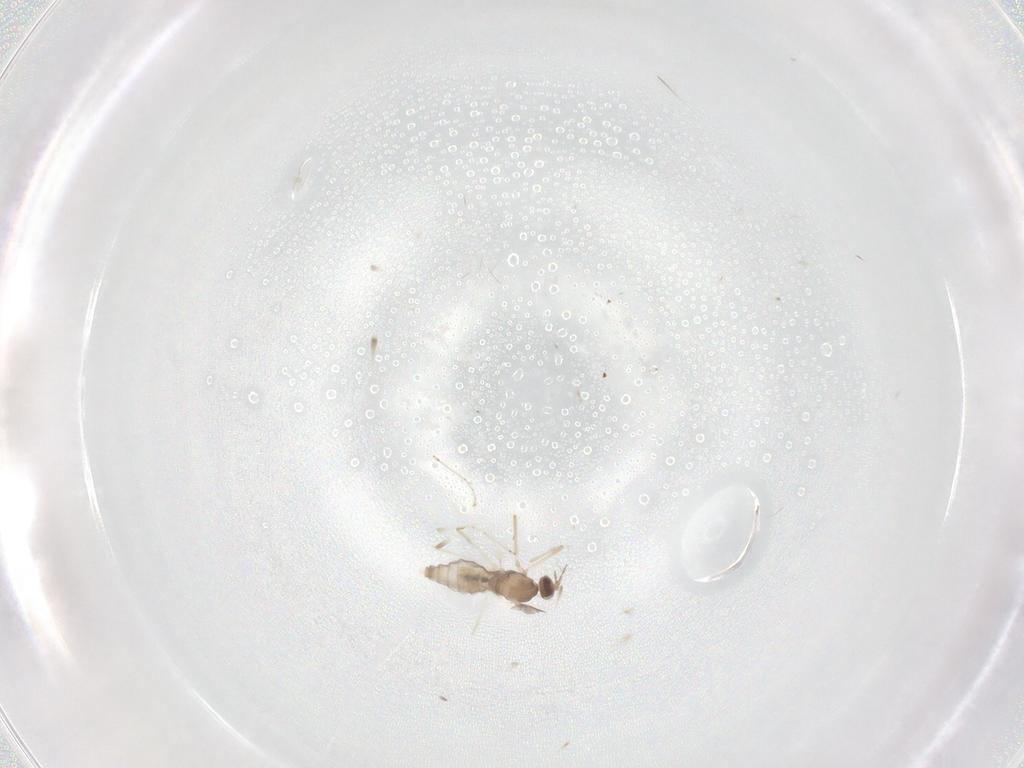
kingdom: Animalia
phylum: Arthropoda
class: Insecta
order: Diptera
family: Cecidomyiidae
